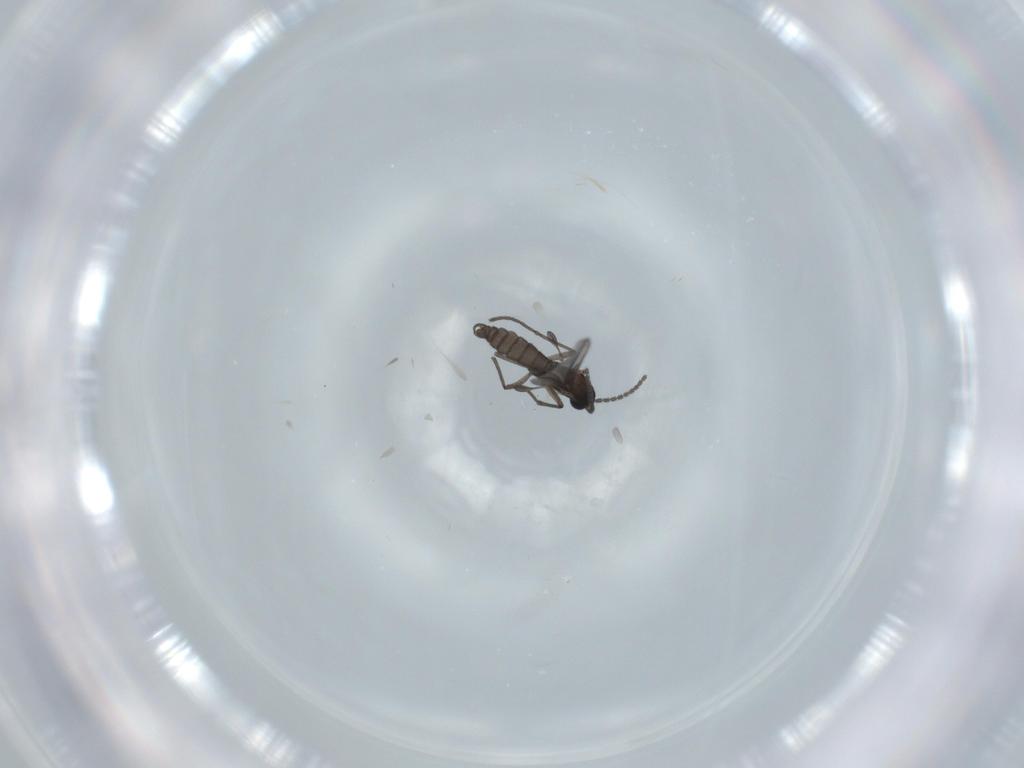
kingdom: Animalia
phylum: Arthropoda
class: Insecta
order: Diptera
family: Sciaridae
